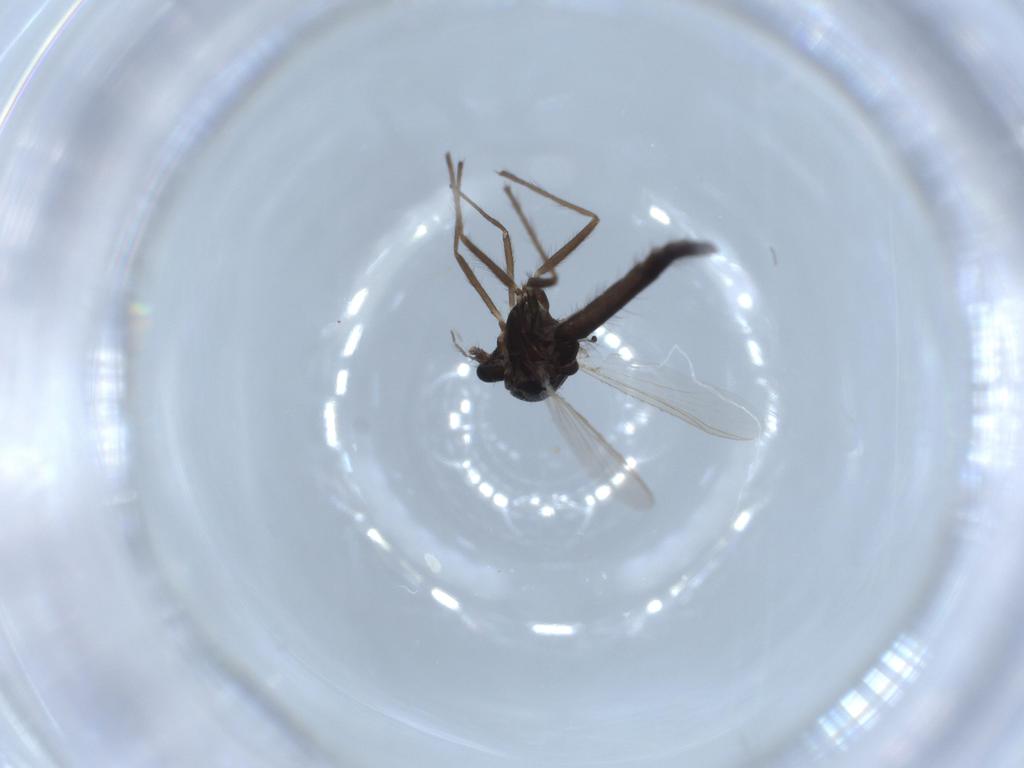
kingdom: Animalia
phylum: Arthropoda
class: Insecta
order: Diptera
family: Chironomidae
